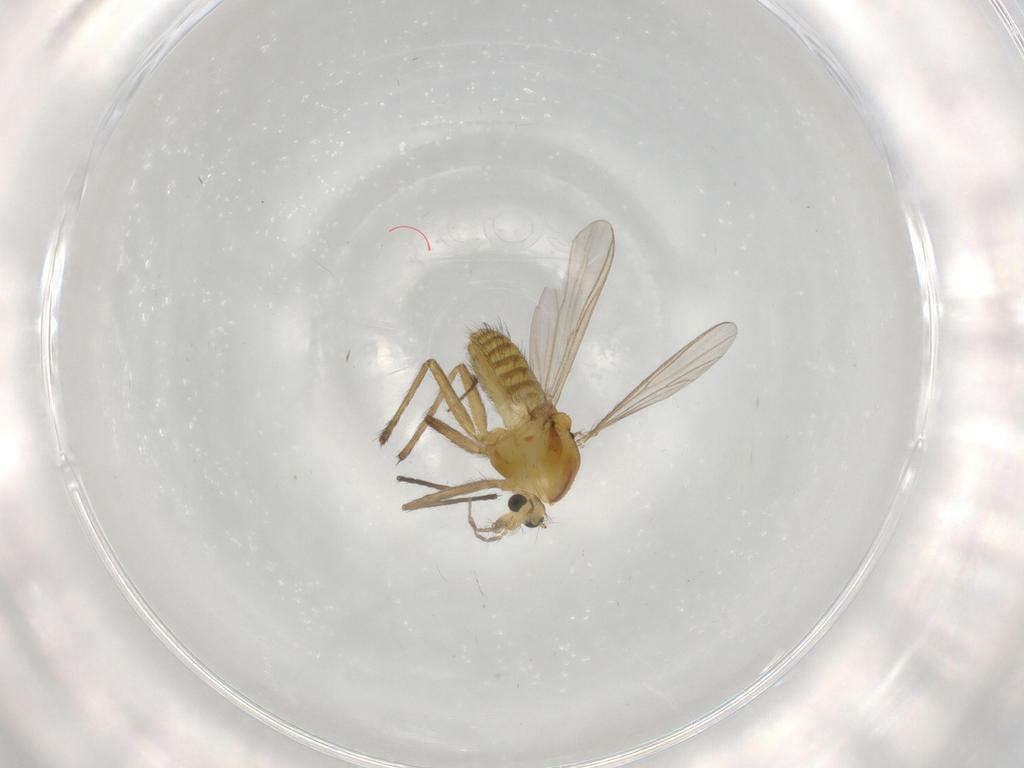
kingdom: Animalia
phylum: Arthropoda
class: Insecta
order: Diptera
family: Chironomidae
